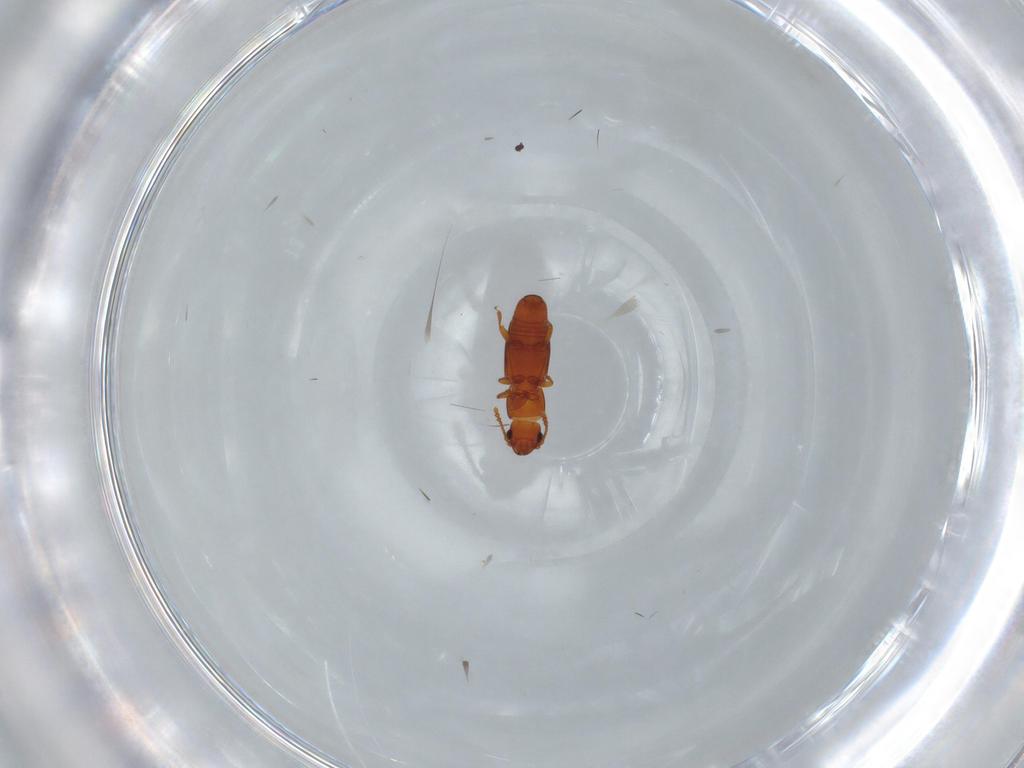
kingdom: Animalia
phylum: Arthropoda
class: Insecta
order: Coleoptera
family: Smicripidae
